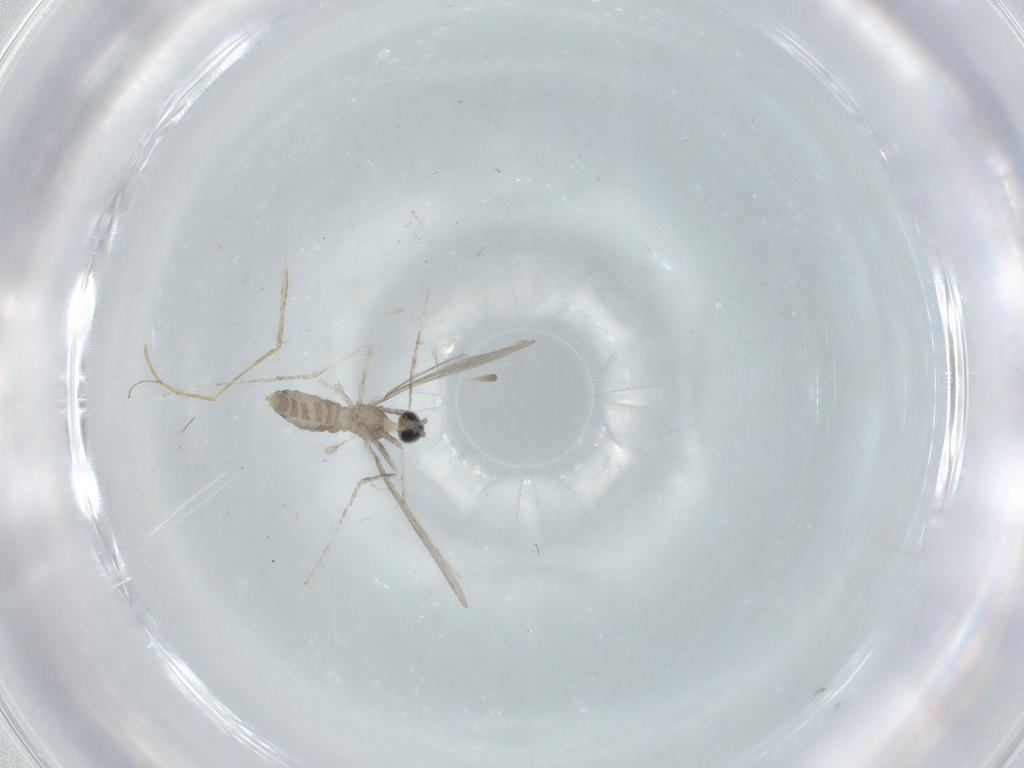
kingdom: Animalia
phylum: Arthropoda
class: Insecta
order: Diptera
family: Cecidomyiidae
